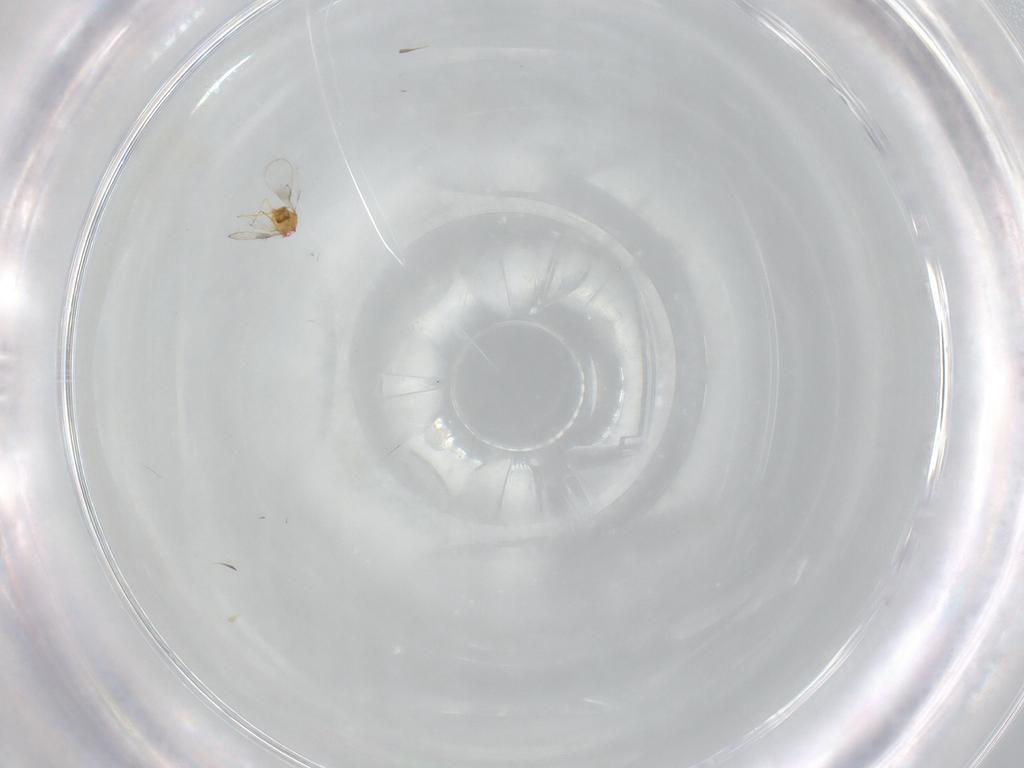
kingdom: Animalia
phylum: Arthropoda
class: Insecta
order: Hymenoptera
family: Trichogrammatidae
